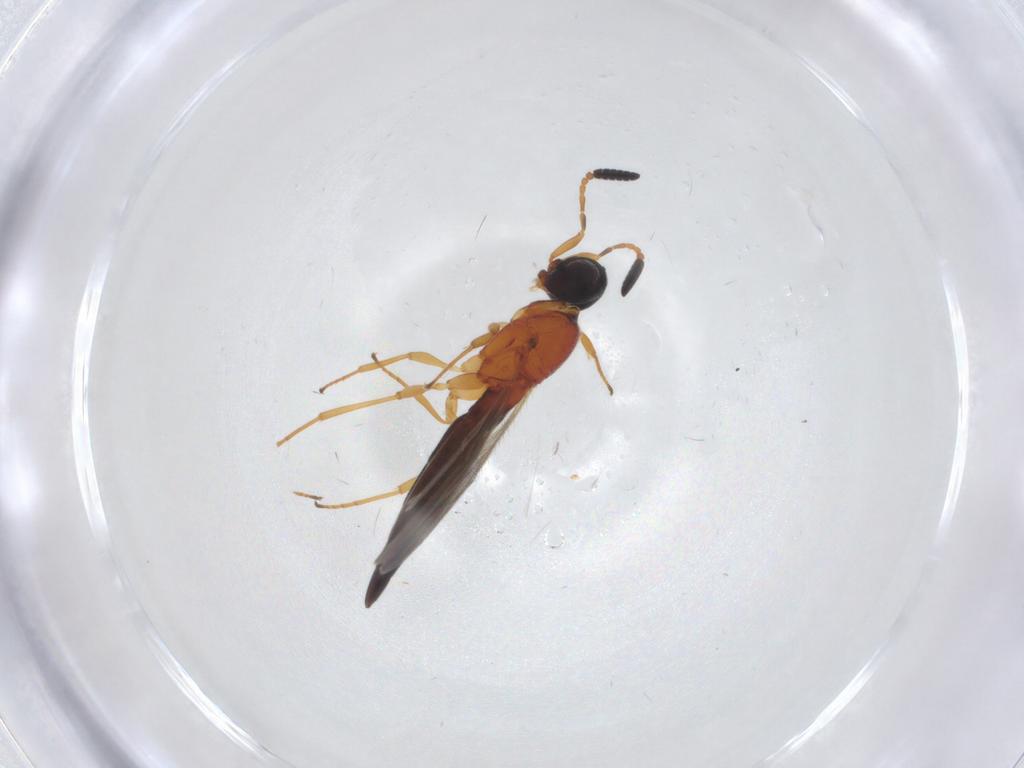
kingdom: Animalia
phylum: Arthropoda
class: Insecta
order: Hymenoptera
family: Scelionidae
